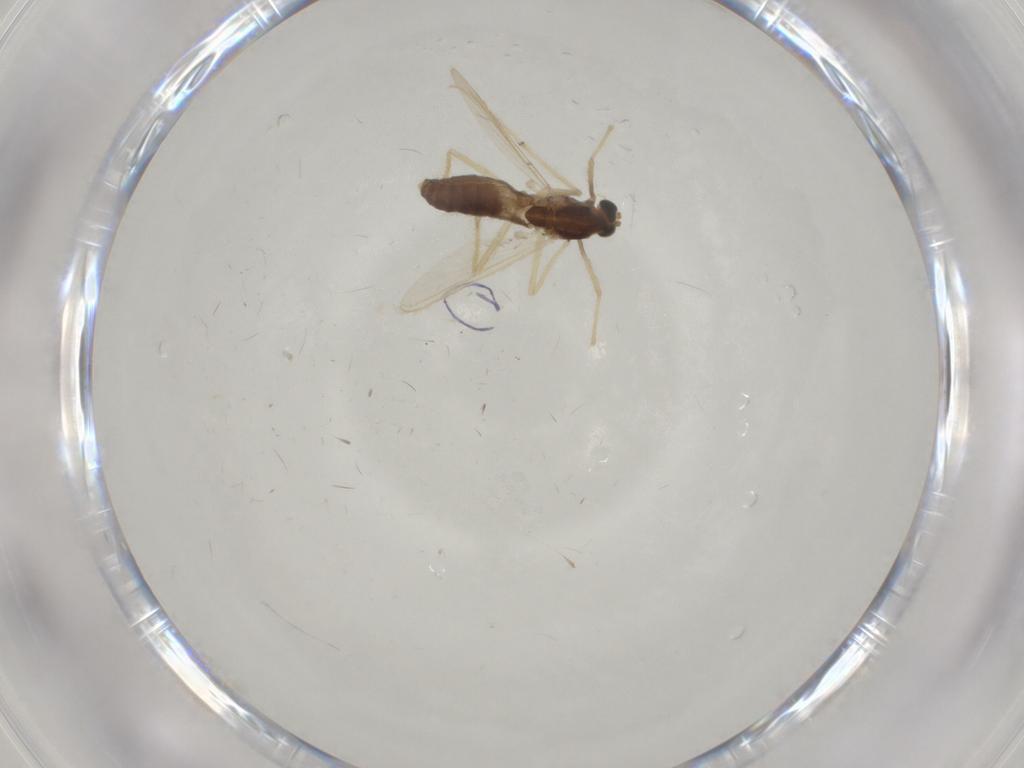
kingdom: Animalia
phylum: Arthropoda
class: Insecta
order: Diptera
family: Chironomidae
